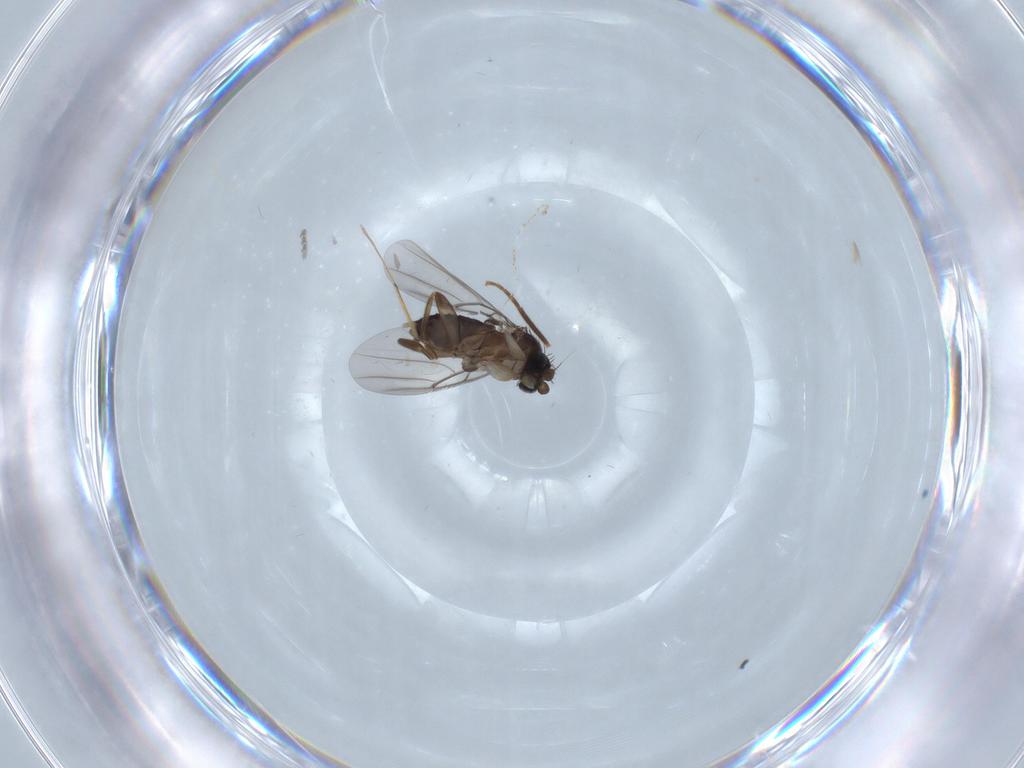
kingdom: Animalia
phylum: Arthropoda
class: Insecta
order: Diptera
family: Phoridae
